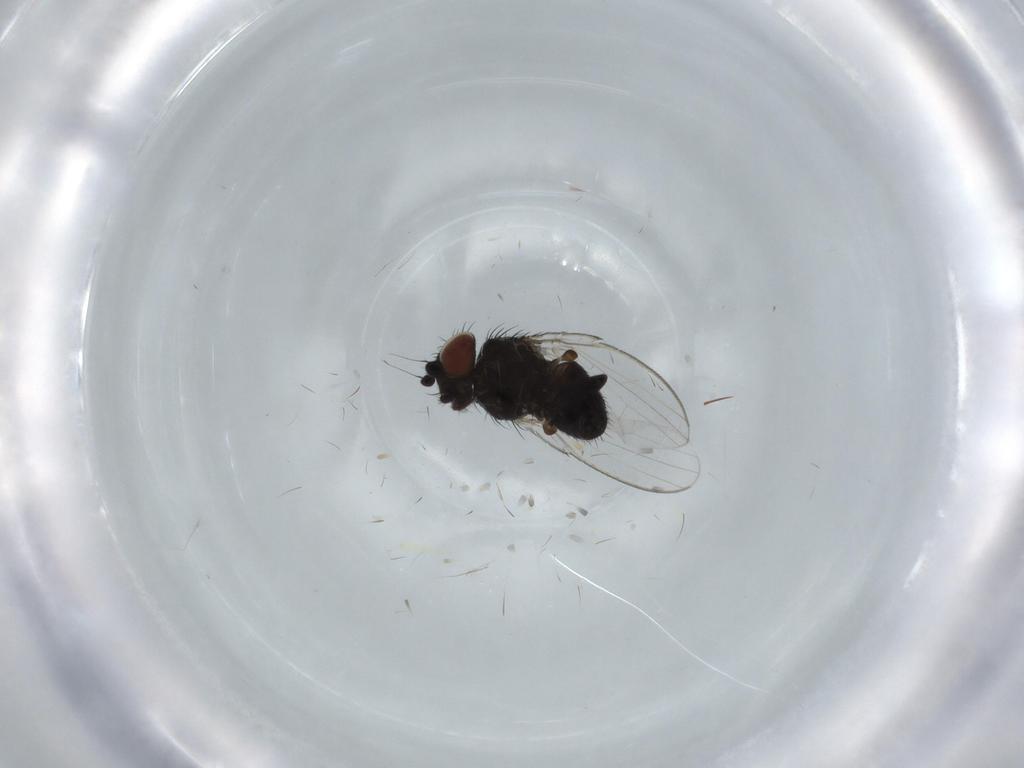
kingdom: Animalia
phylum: Arthropoda
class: Insecta
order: Diptera
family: Milichiidae
